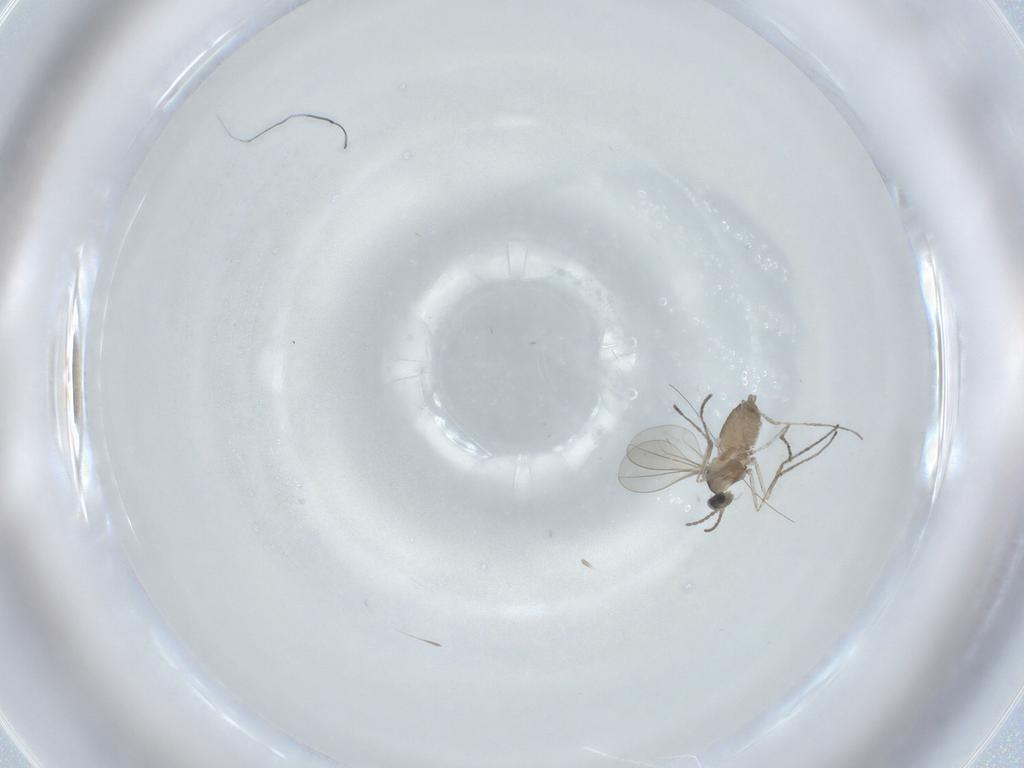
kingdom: Animalia
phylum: Arthropoda
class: Insecta
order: Diptera
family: Cecidomyiidae
